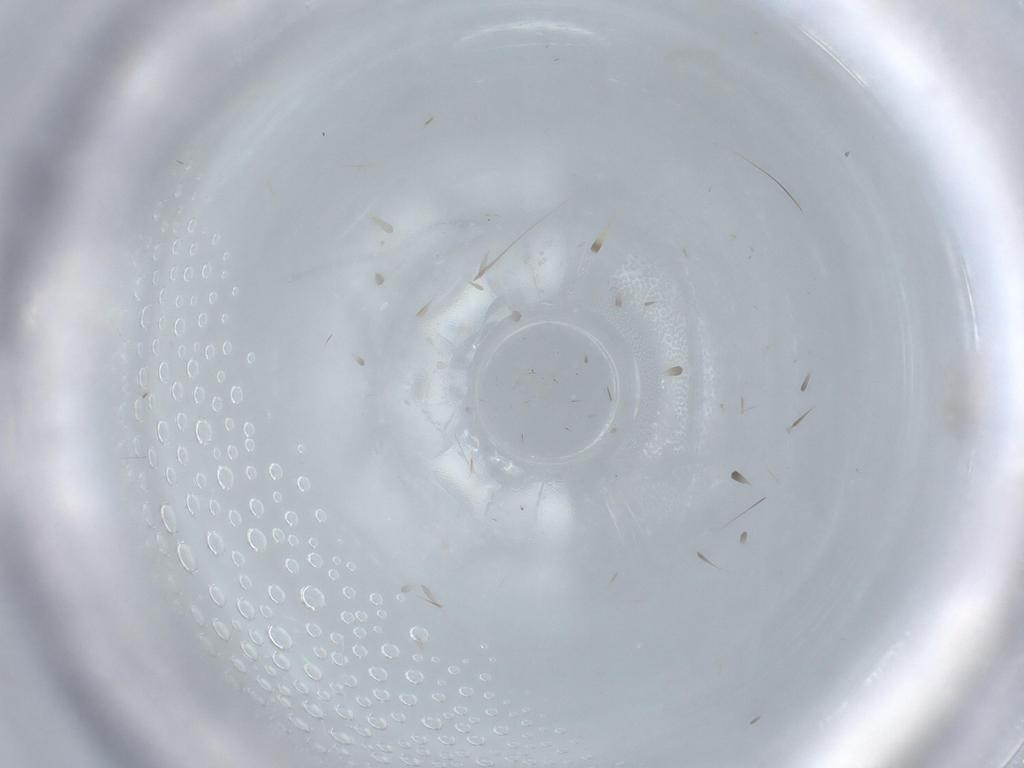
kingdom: Animalia
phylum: Arthropoda
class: Insecta
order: Diptera
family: Cecidomyiidae
